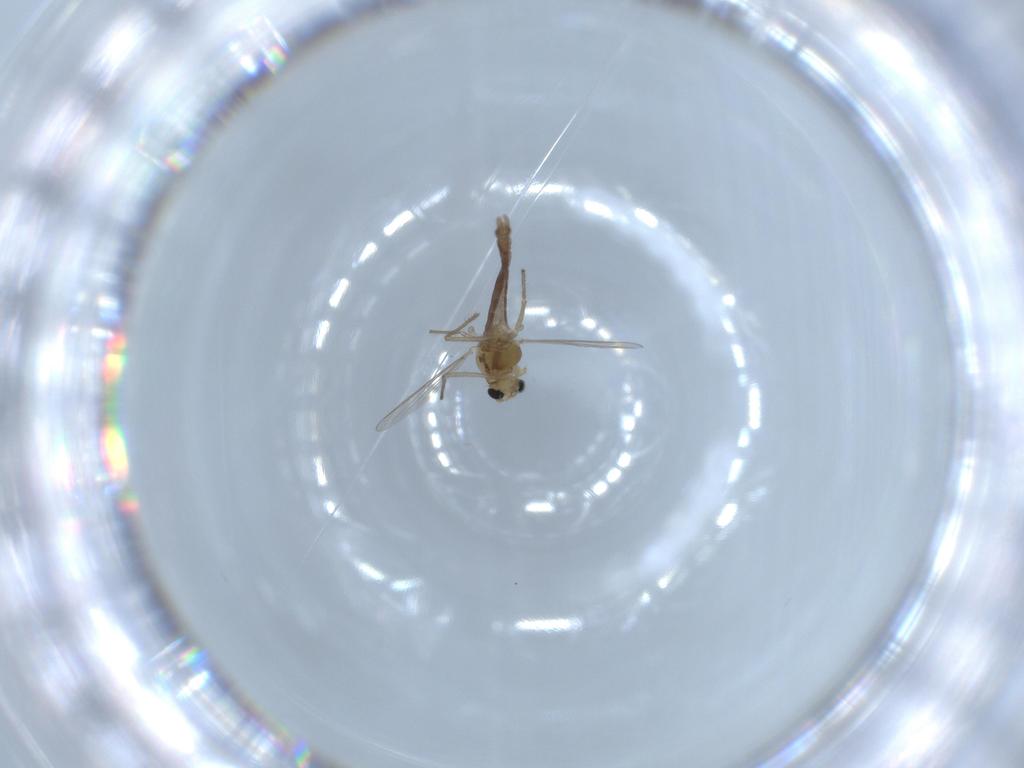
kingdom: Animalia
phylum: Arthropoda
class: Insecta
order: Diptera
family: Chironomidae
